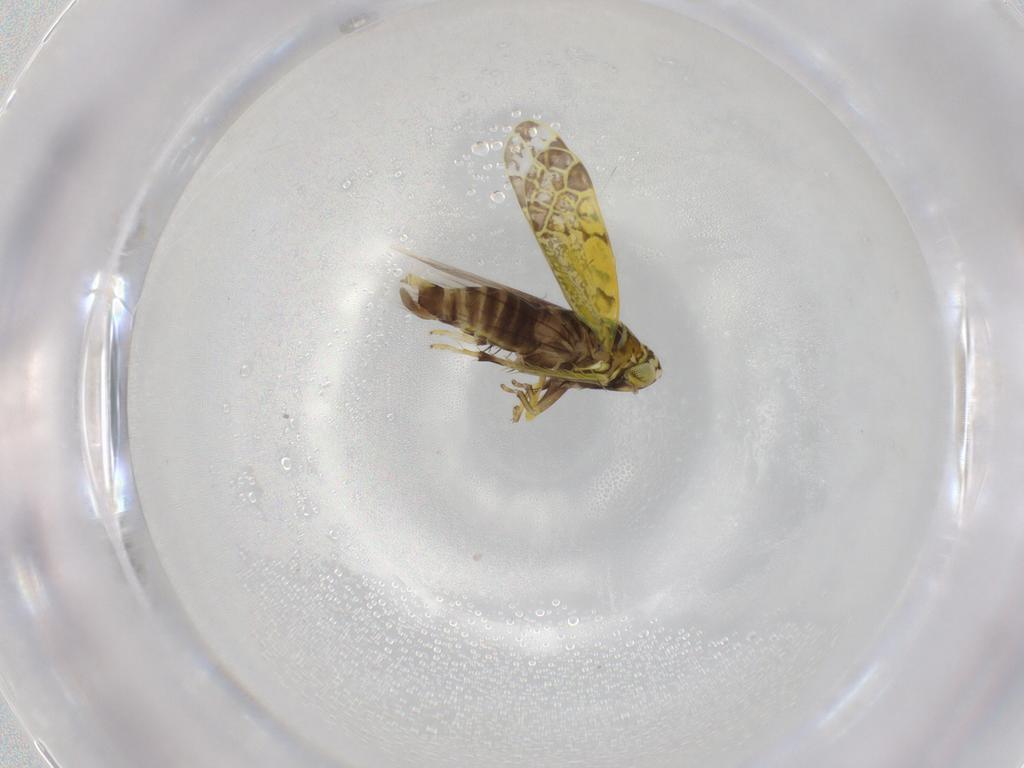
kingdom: Animalia
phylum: Arthropoda
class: Insecta
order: Hemiptera
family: Cicadellidae
